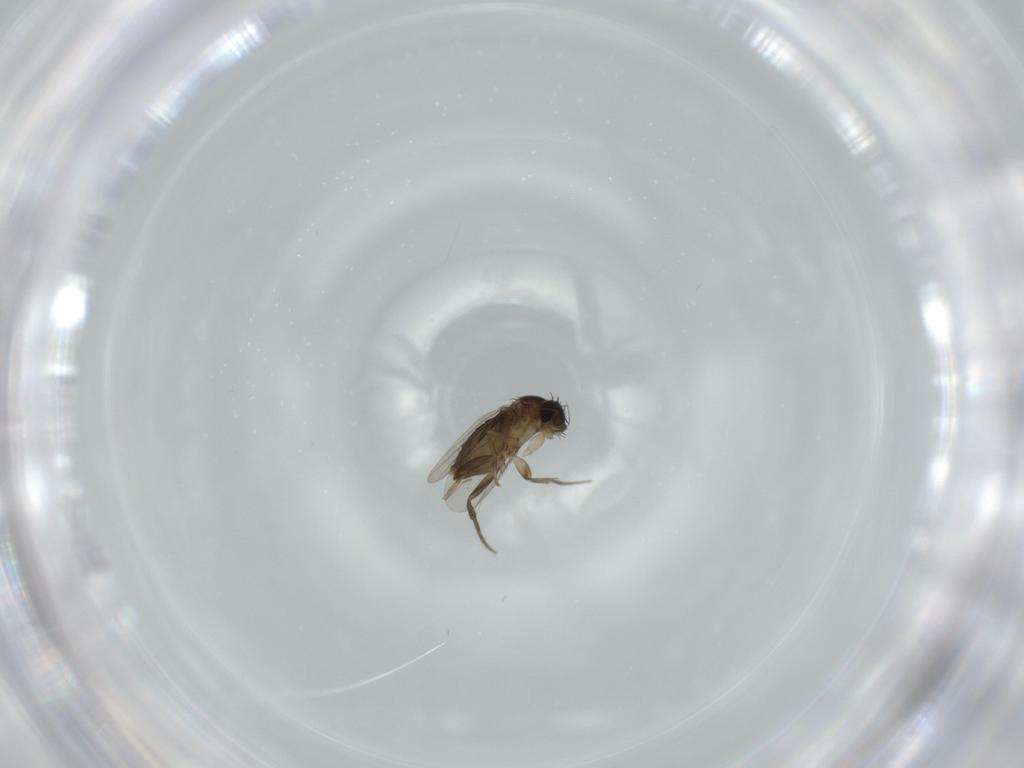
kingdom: Animalia
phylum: Arthropoda
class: Insecta
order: Diptera
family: Phoridae
